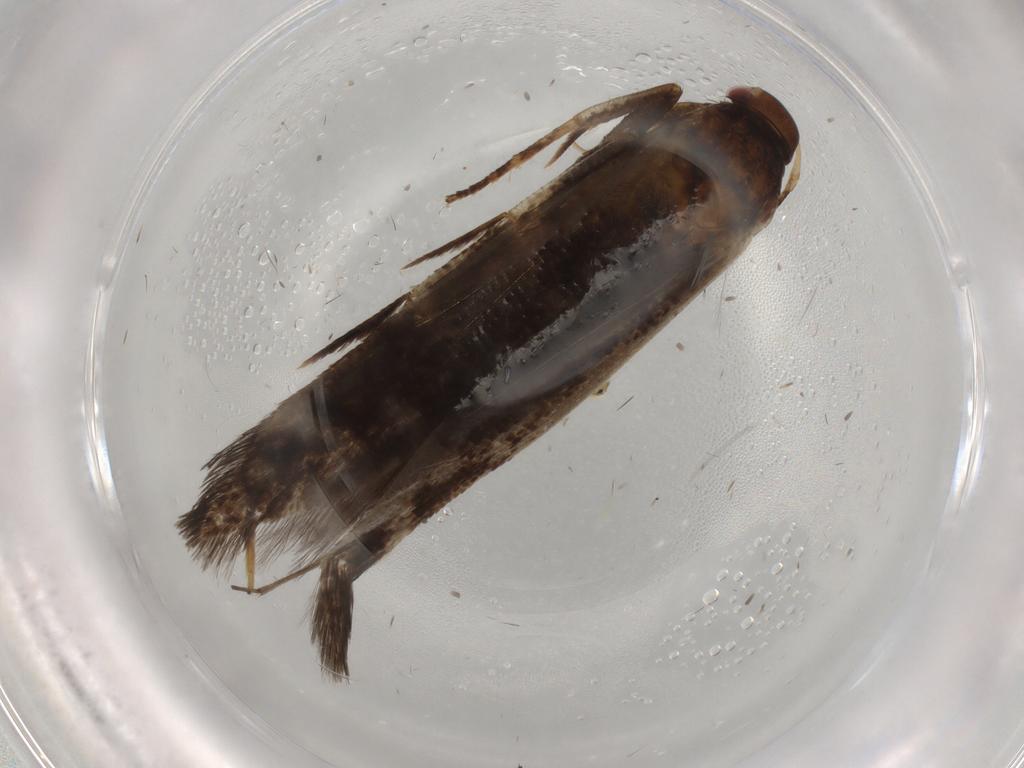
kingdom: Animalia
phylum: Arthropoda
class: Insecta
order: Lepidoptera
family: Cosmopterigidae
